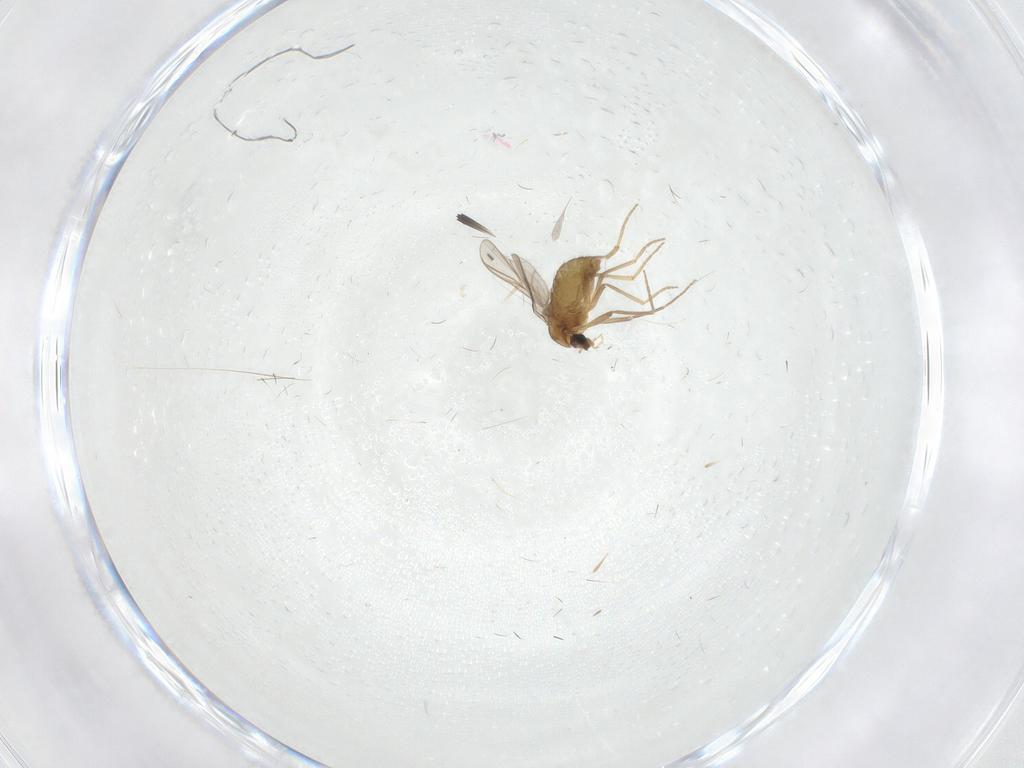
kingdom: Animalia
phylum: Arthropoda
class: Insecta
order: Diptera
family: Chironomidae
